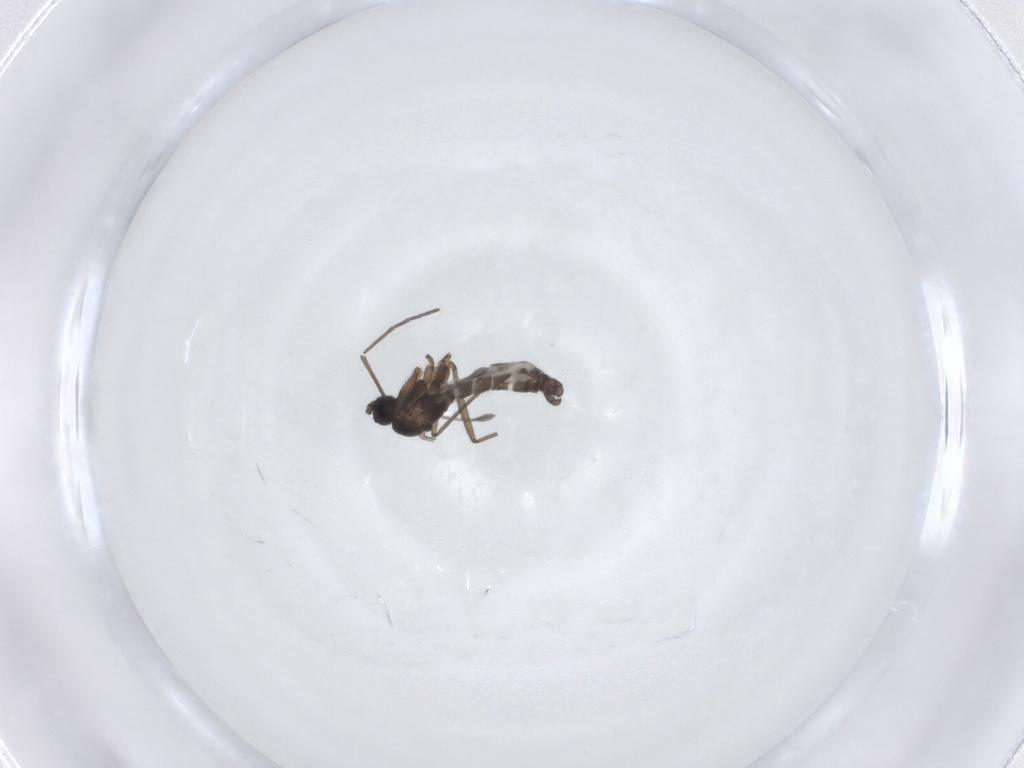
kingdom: Animalia
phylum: Arthropoda
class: Insecta
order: Diptera
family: Sciaridae
